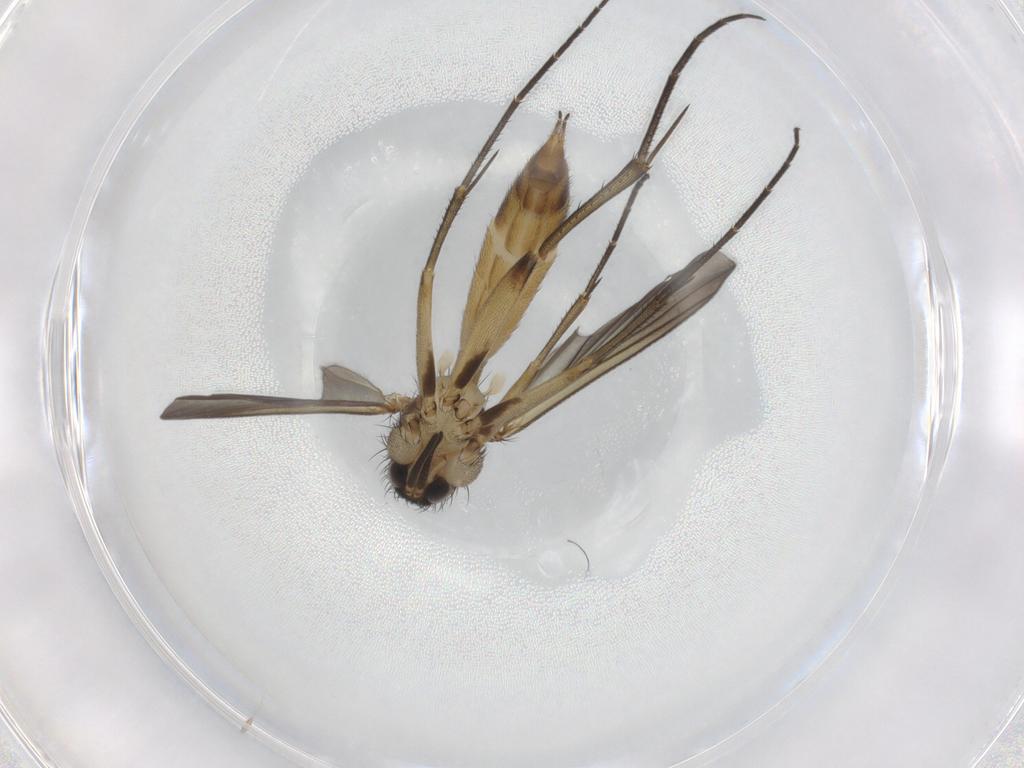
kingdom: Animalia
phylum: Arthropoda
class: Insecta
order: Diptera
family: Mycetophilidae
